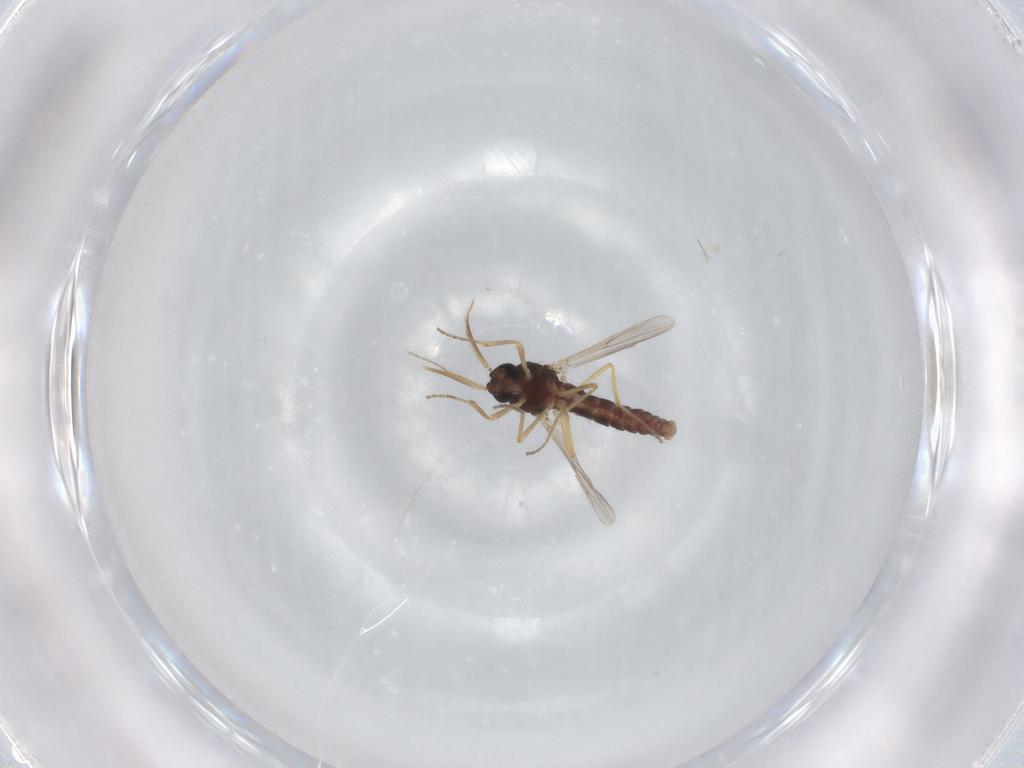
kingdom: Animalia
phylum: Arthropoda
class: Insecta
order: Diptera
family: Ceratopogonidae
